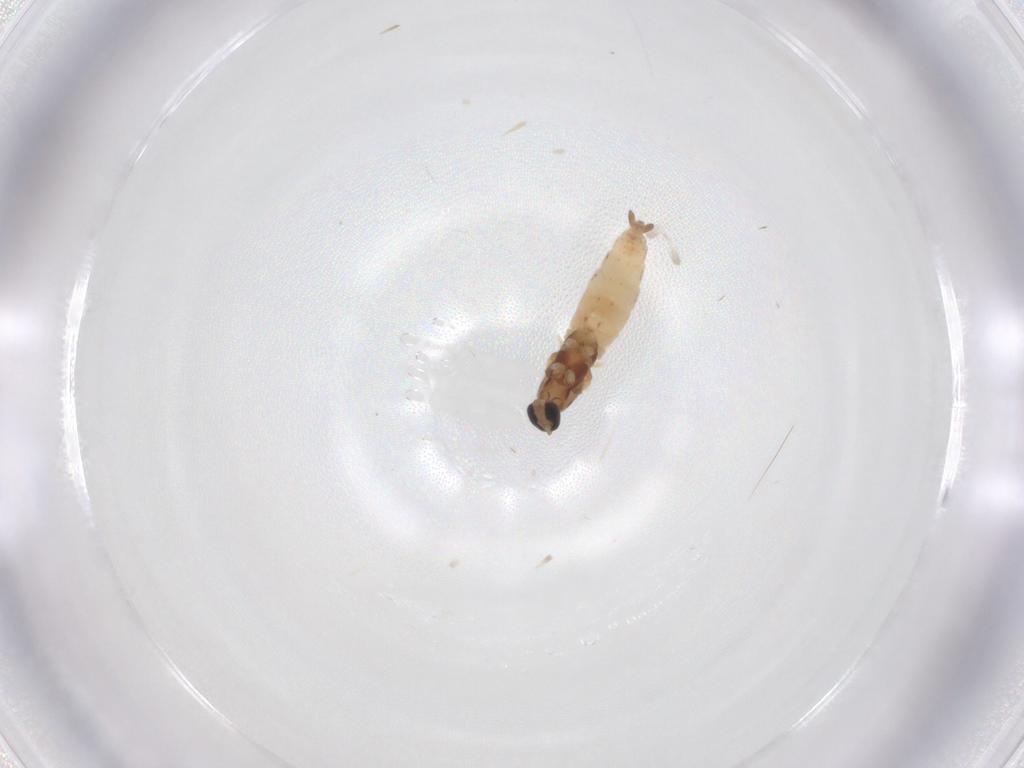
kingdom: Animalia
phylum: Arthropoda
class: Insecta
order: Diptera
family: Cecidomyiidae
